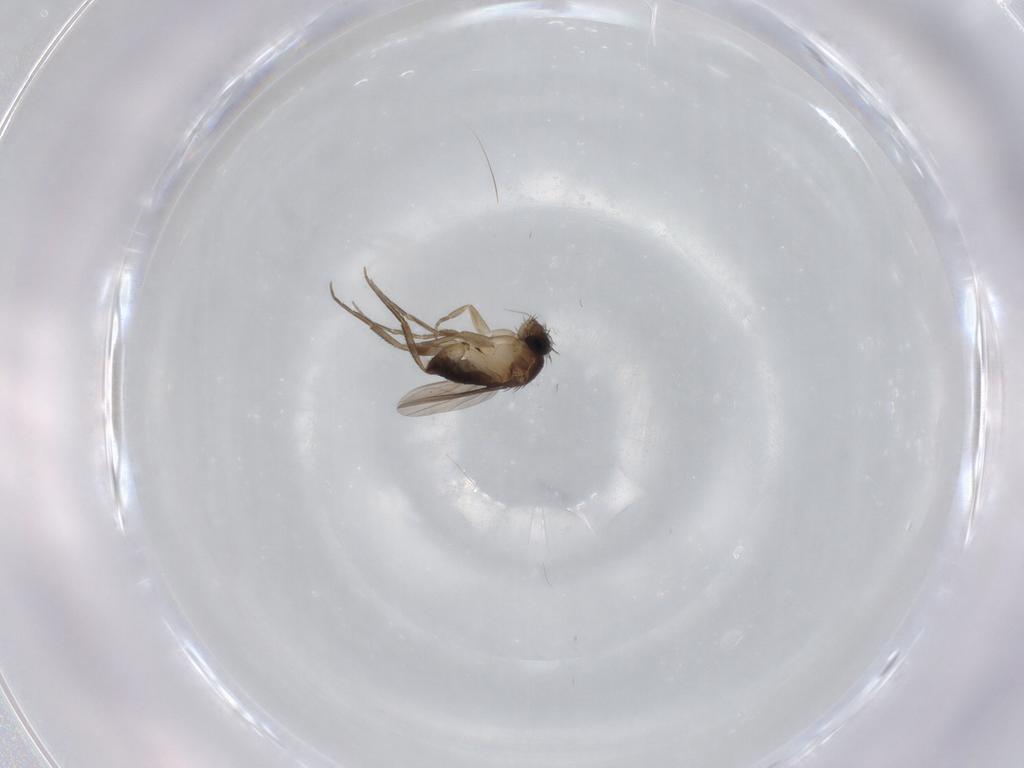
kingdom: Animalia
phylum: Arthropoda
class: Insecta
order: Diptera
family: Phoridae
